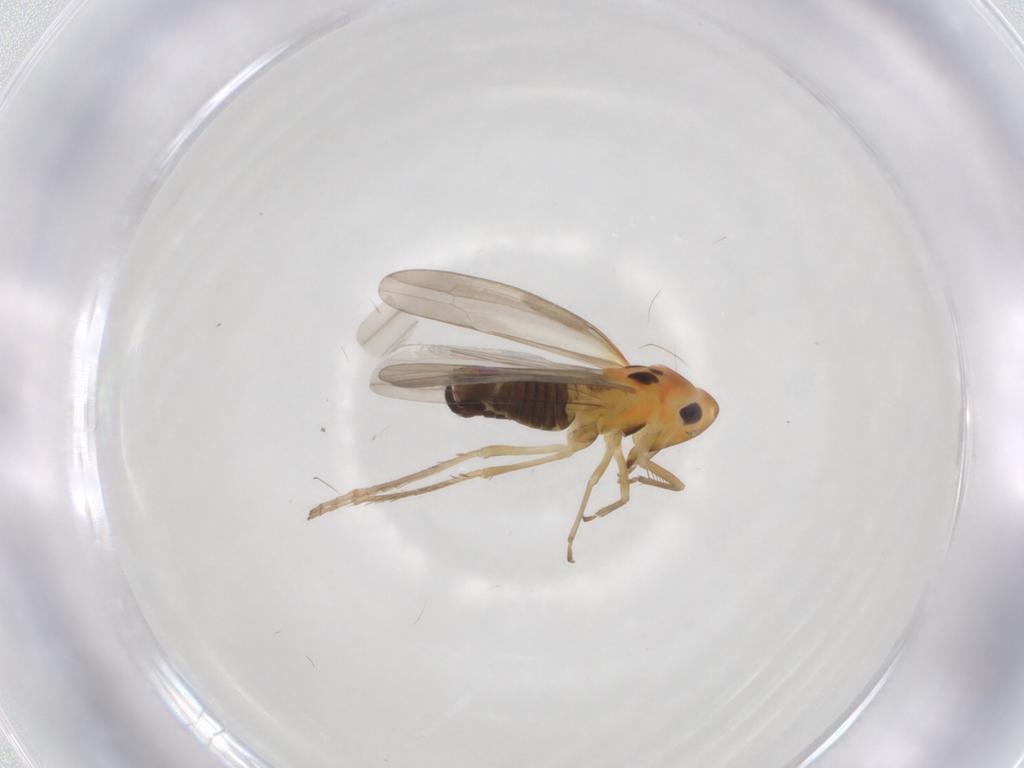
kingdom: Animalia
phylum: Arthropoda
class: Insecta
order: Hemiptera
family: Cicadellidae
